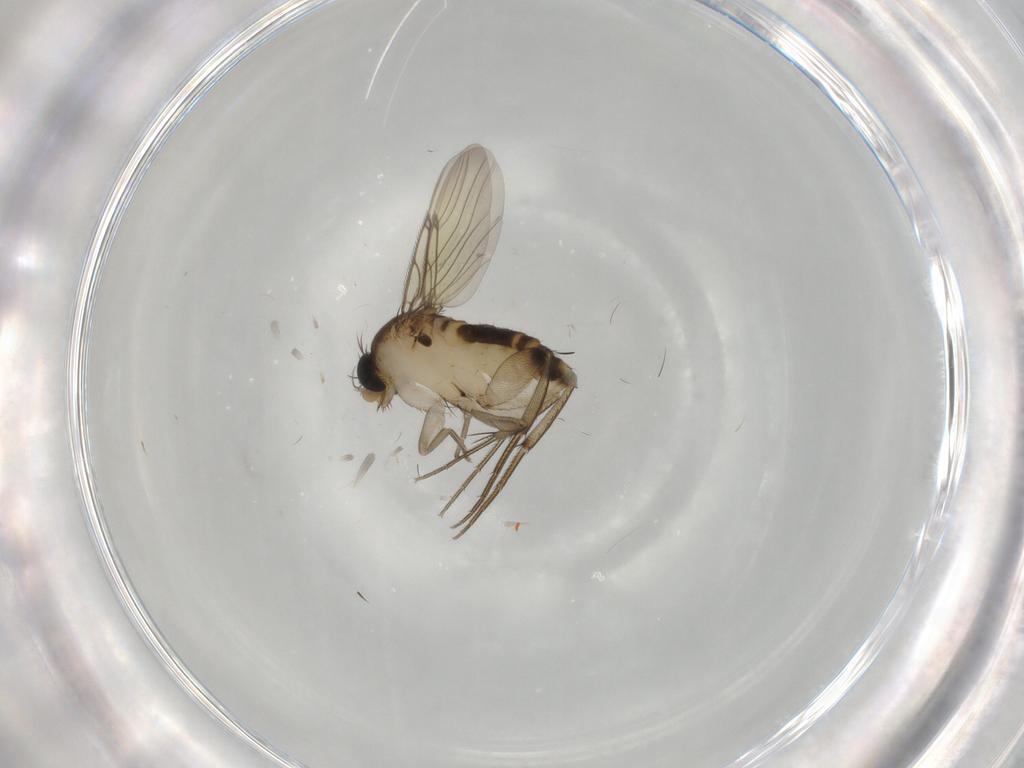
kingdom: Animalia
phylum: Arthropoda
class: Insecta
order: Diptera
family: Phoridae
